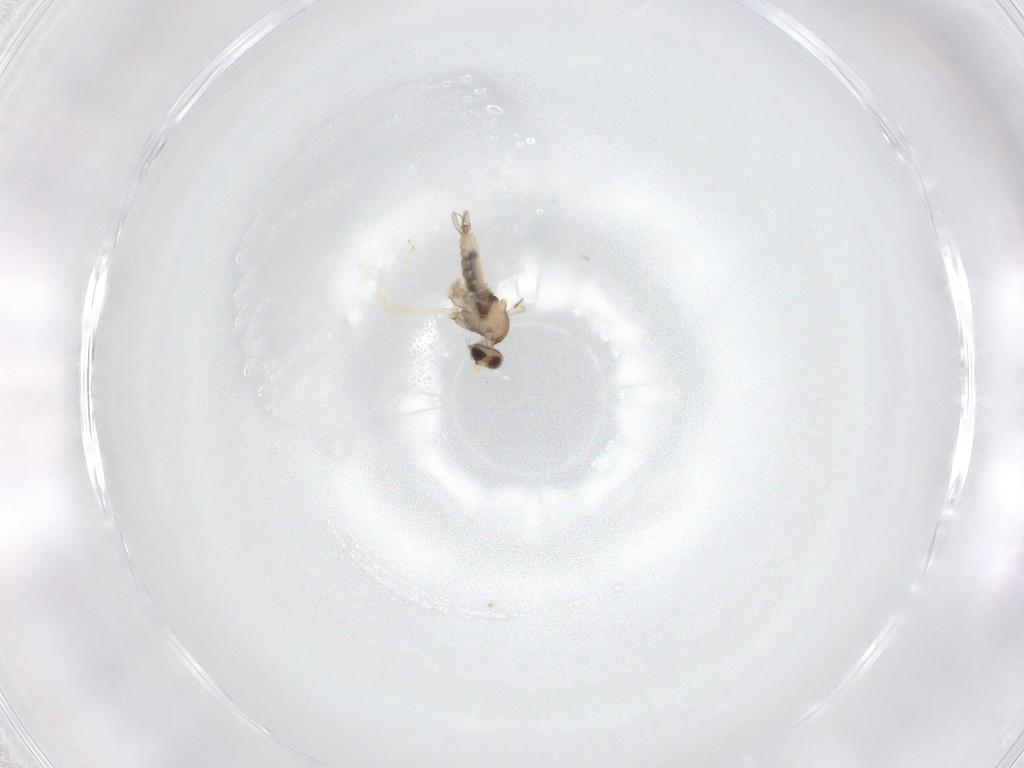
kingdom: Animalia
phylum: Arthropoda
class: Insecta
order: Diptera
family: Cecidomyiidae
